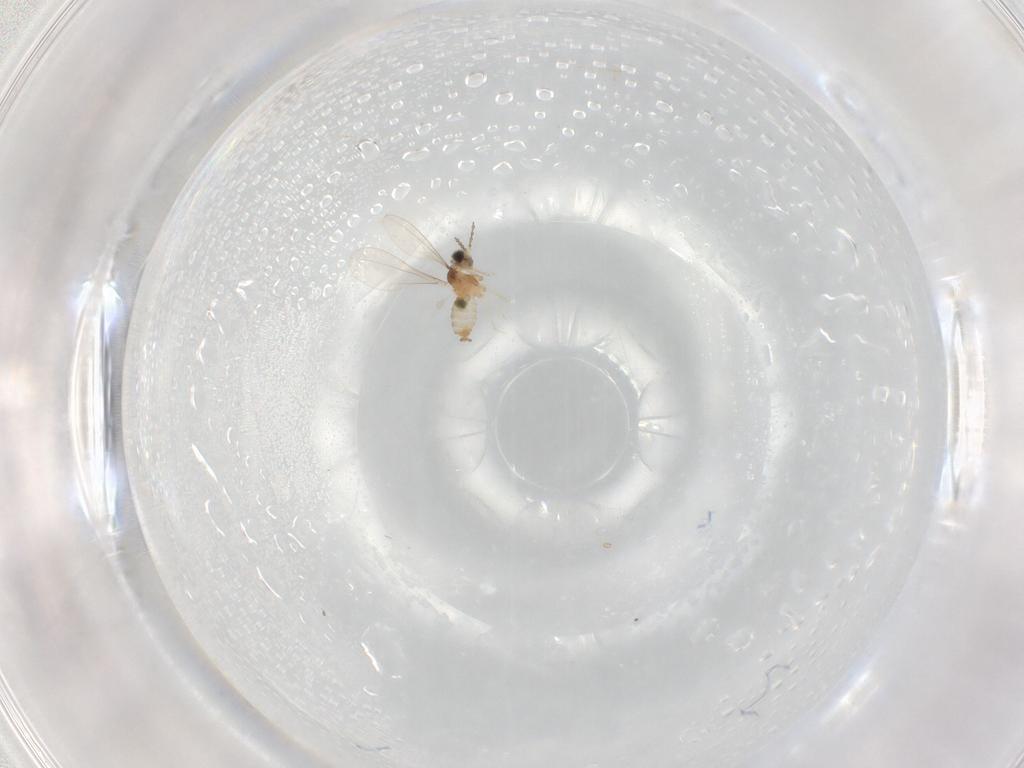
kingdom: Animalia
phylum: Arthropoda
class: Insecta
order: Diptera
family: Cecidomyiidae
